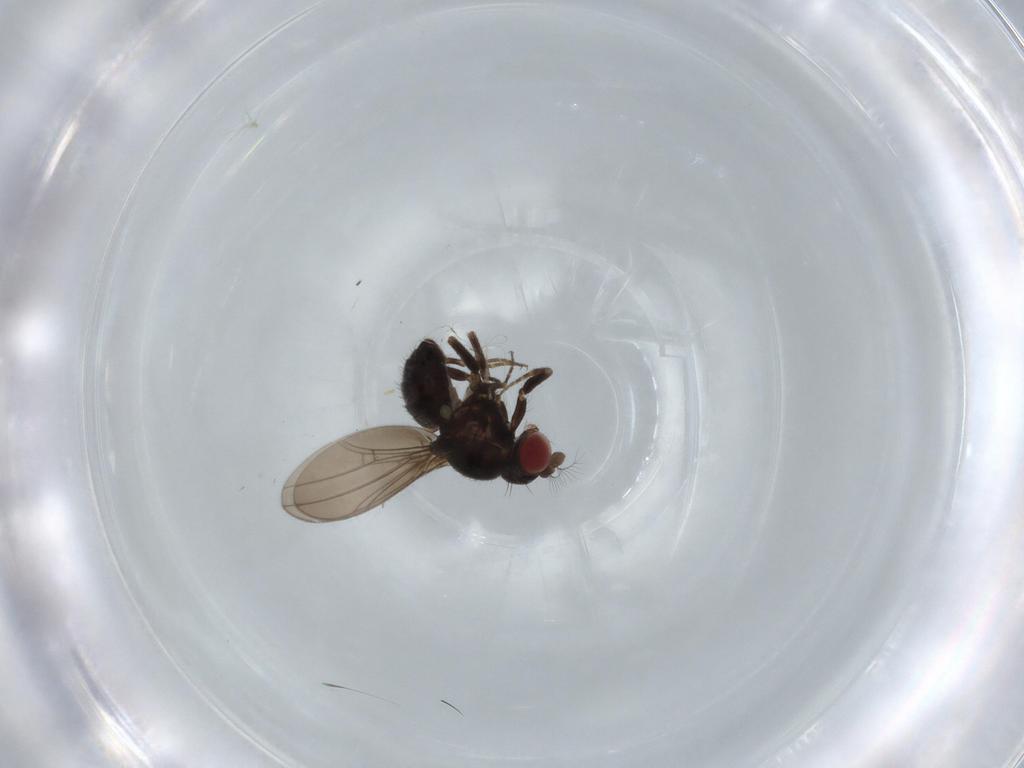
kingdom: Animalia
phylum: Arthropoda
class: Insecta
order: Diptera
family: Ephydridae
